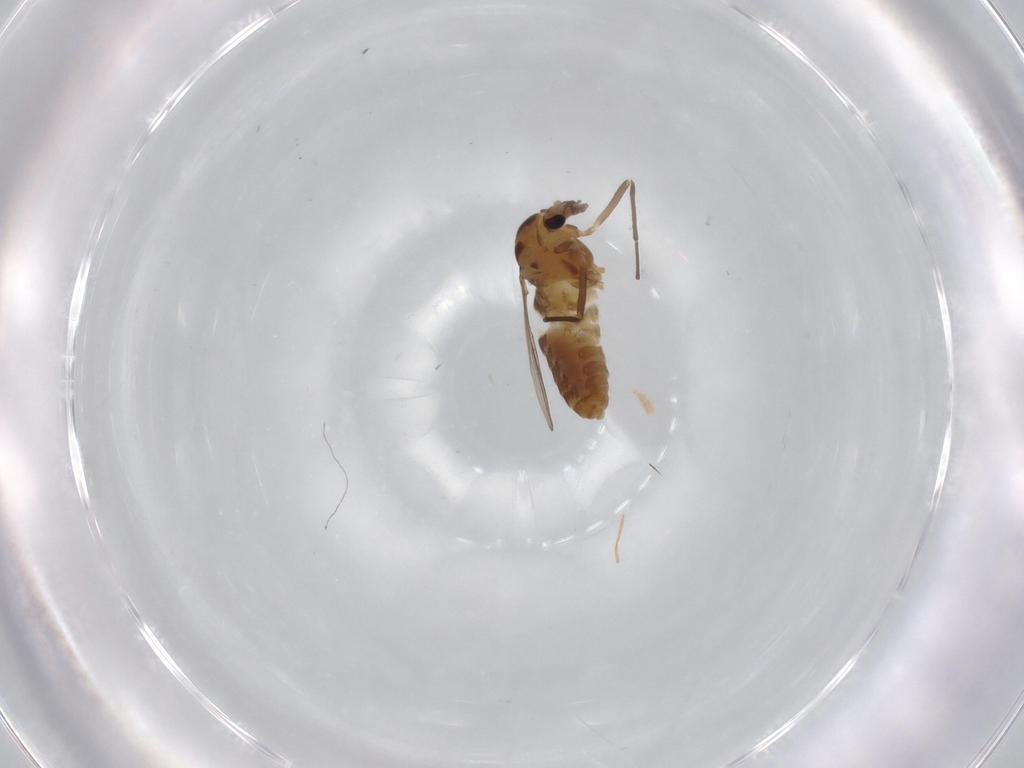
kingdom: Animalia
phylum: Arthropoda
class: Insecta
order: Diptera
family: Chironomidae
